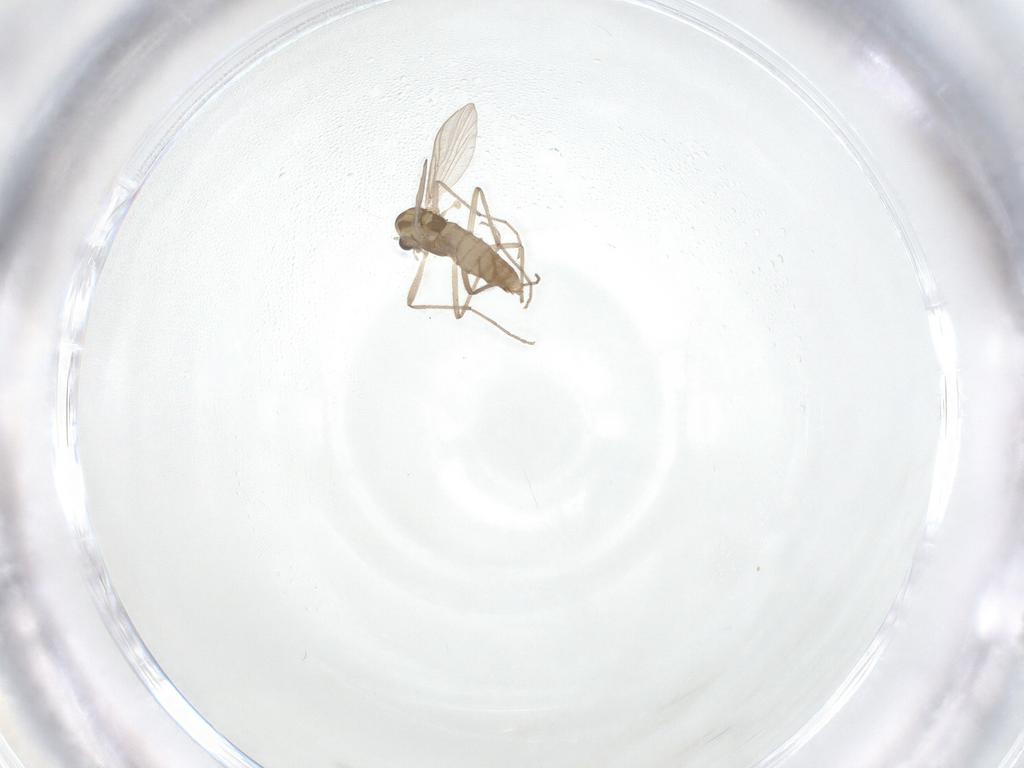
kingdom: Animalia
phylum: Arthropoda
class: Insecta
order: Diptera
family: Chironomidae
